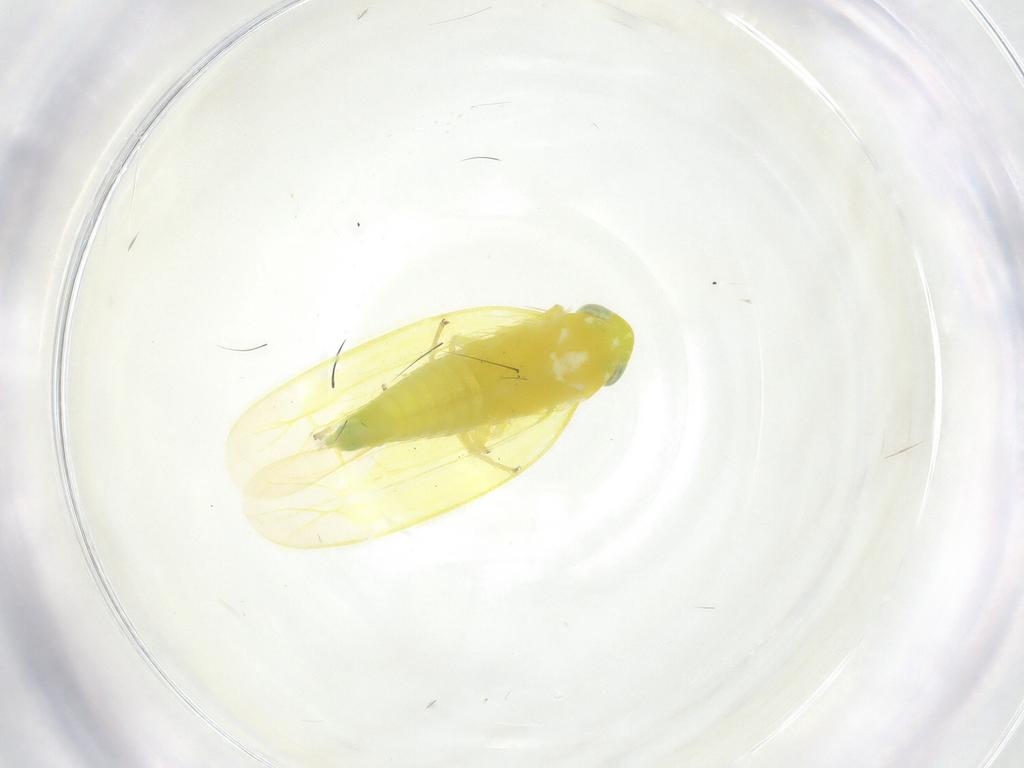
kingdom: Animalia
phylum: Arthropoda
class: Insecta
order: Hemiptera
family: Cicadellidae
